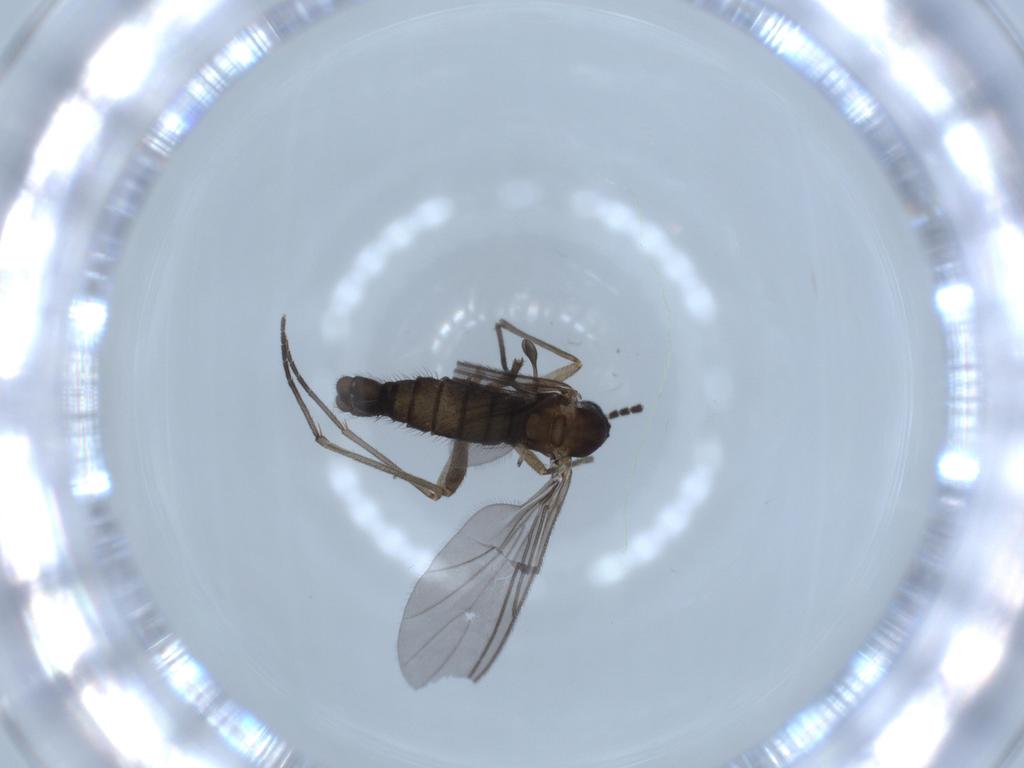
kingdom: Animalia
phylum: Arthropoda
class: Insecta
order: Diptera
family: Sciaridae
